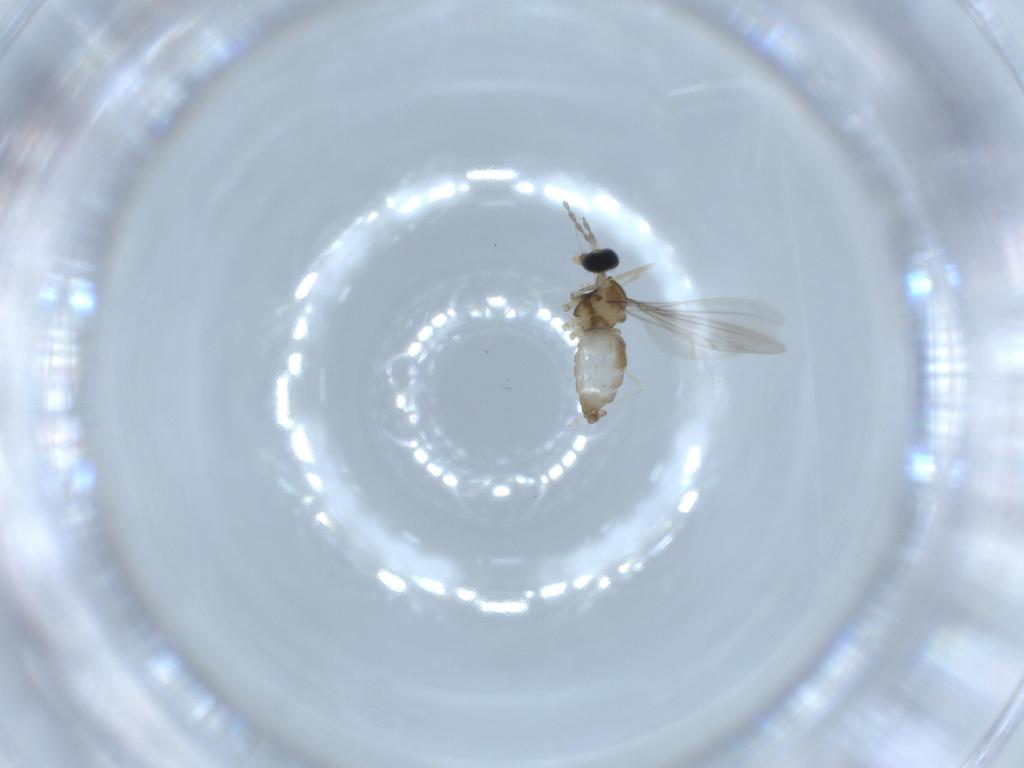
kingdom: Animalia
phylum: Arthropoda
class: Insecta
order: Diptera
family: Cecidomyiidae
